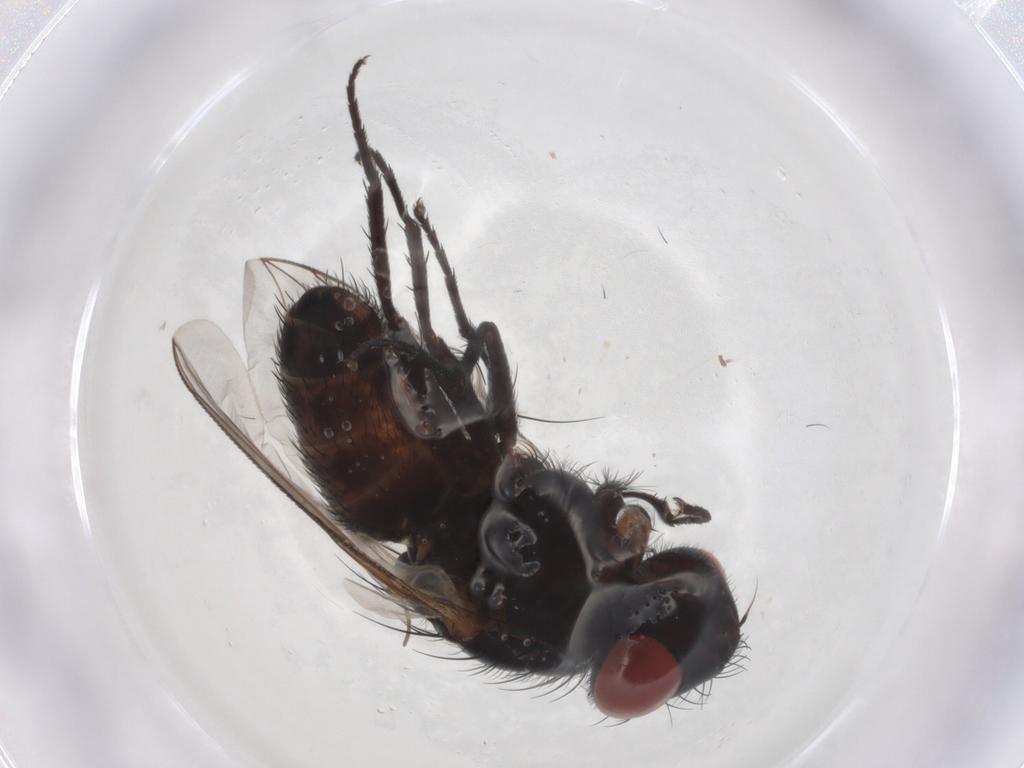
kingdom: Animalia
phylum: Arthropoda
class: Insecta
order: Diptera
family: Sarcophagidae
